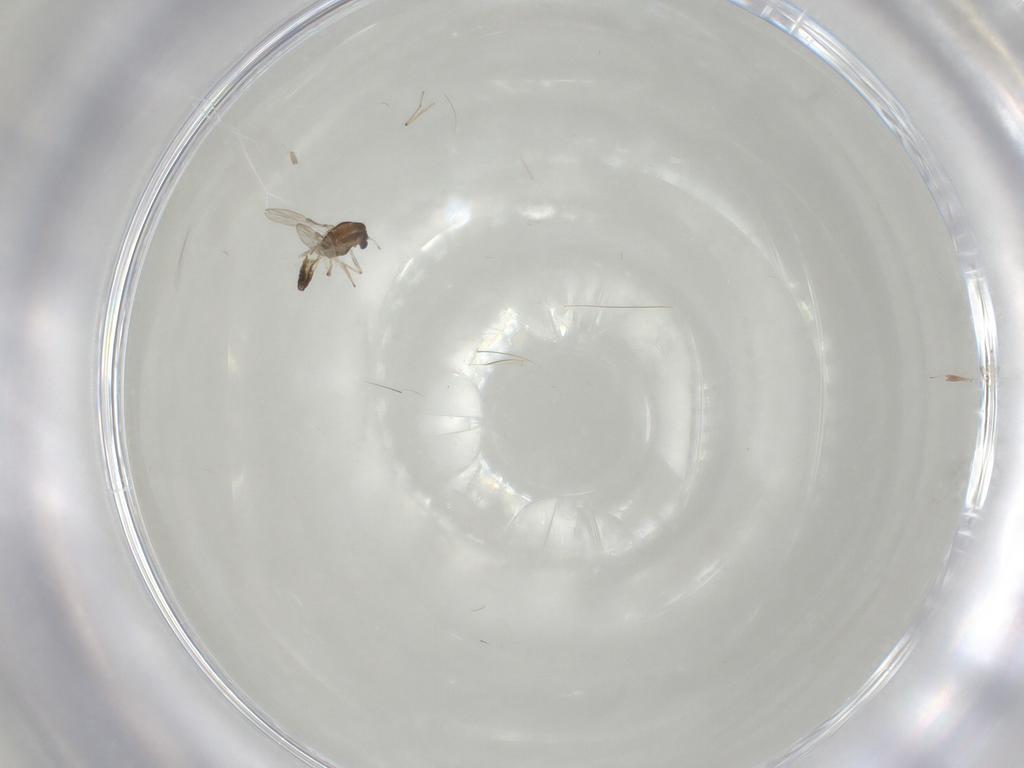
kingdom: Animalia
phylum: Arthropoda
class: Insecta
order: Diptera
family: Chironomidae
